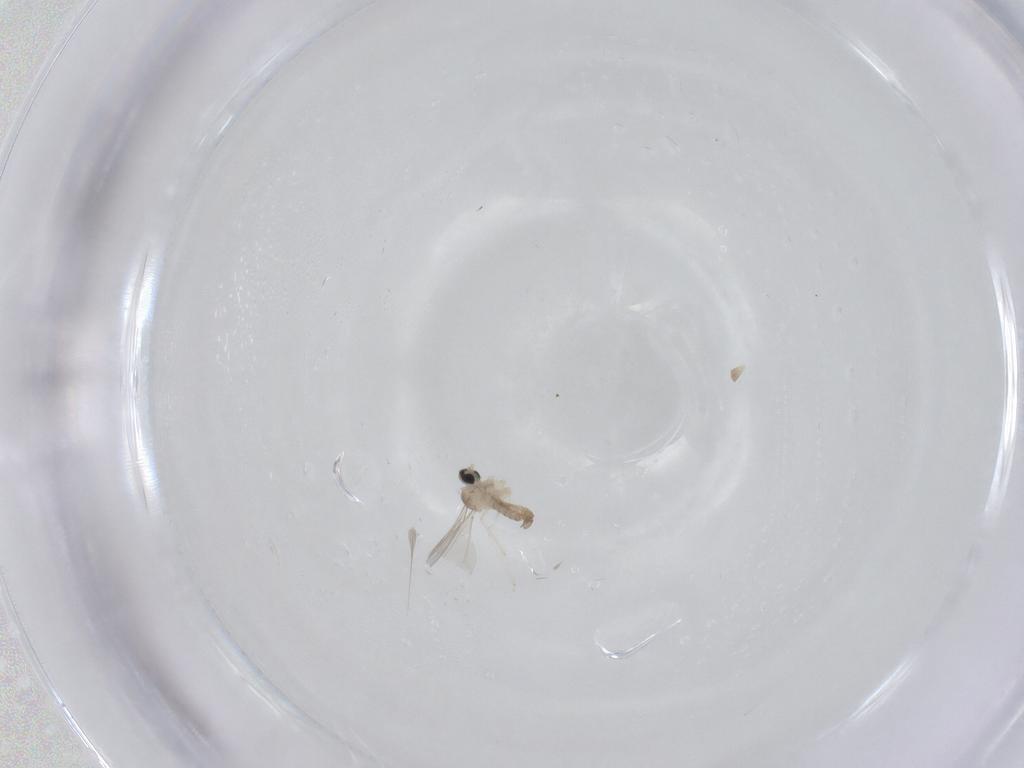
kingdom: Animalia
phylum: Arthropoda
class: Insecta
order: Diptera
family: Cecidomyiidae
